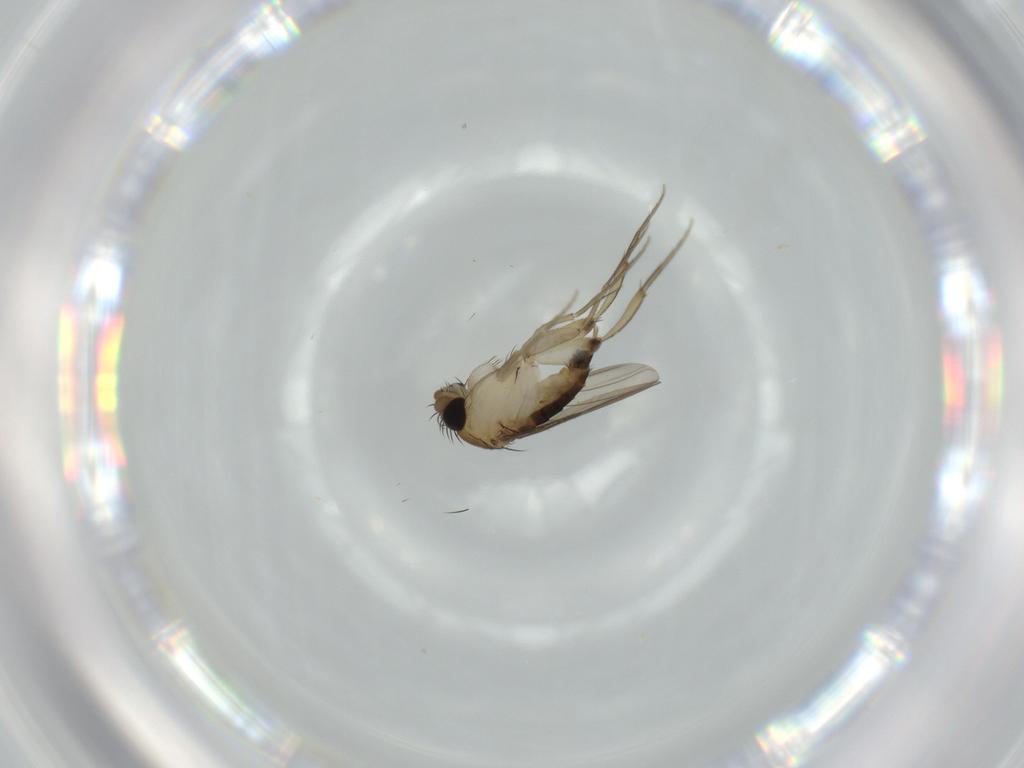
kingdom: Animalia
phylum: Arthropoda
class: Insecta
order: Diptera
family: Phoridae
